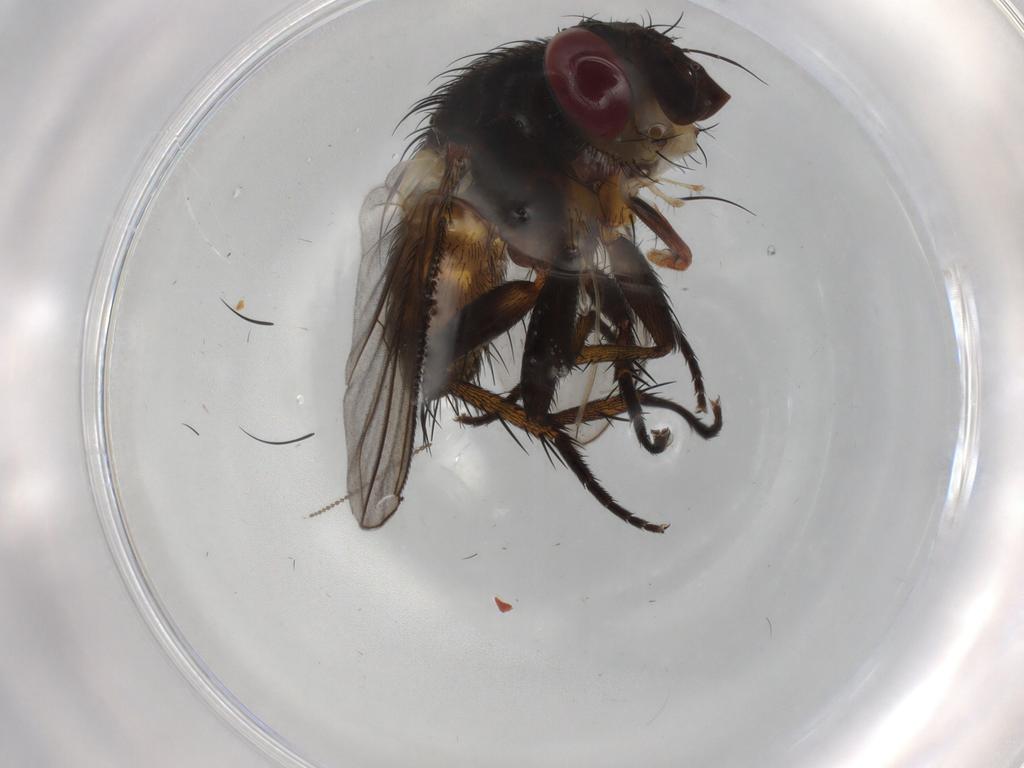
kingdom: Animalia
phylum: Arthropoda
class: Insecta
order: Diptera
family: Tachinidae
